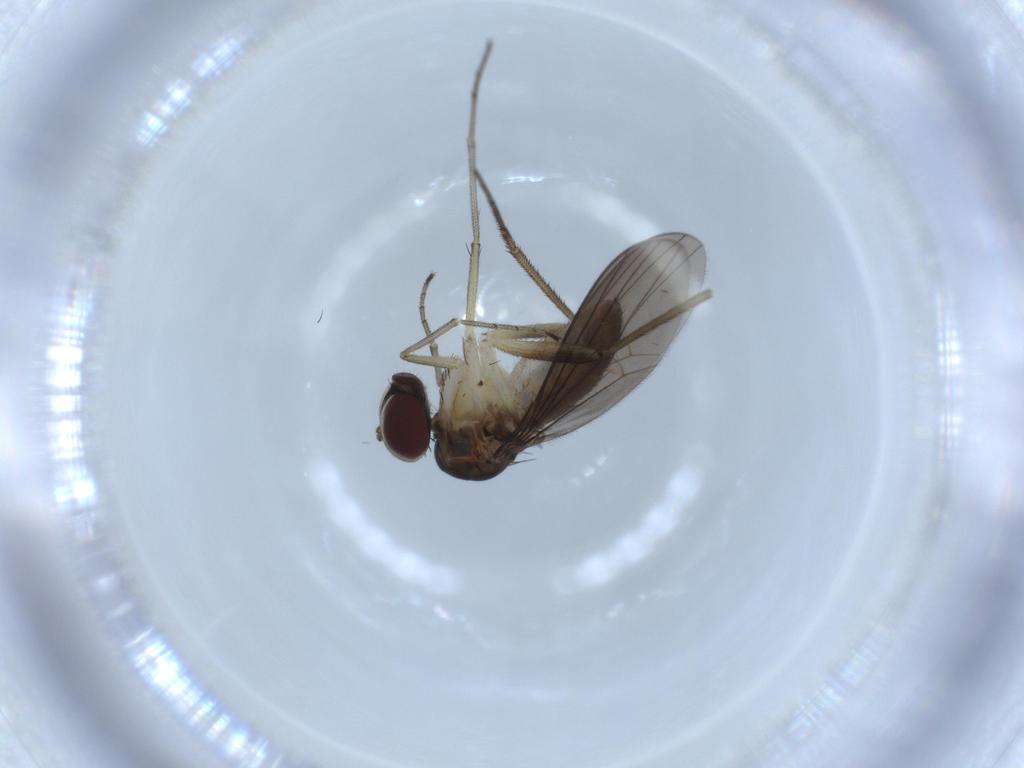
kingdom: Animalia
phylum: Arthropoda
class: Insecta
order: Diptera
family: Dolichopodidae
